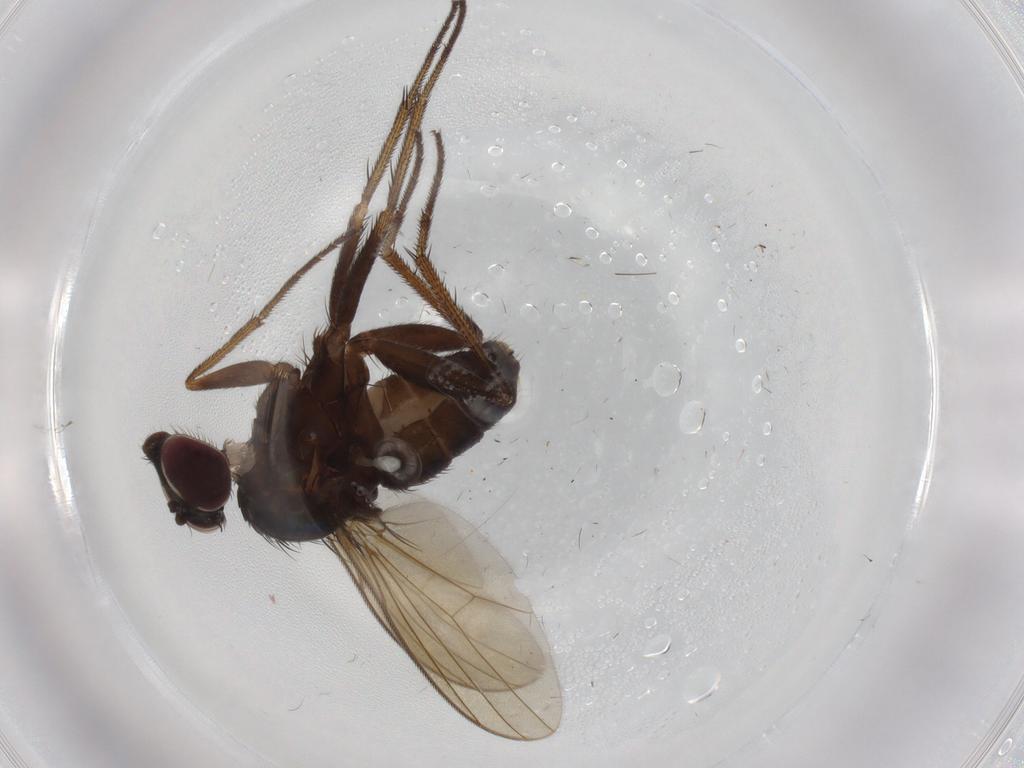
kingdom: Animalia
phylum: Arthropoda
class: Insecta
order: Diptera
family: Dolichopodidae
